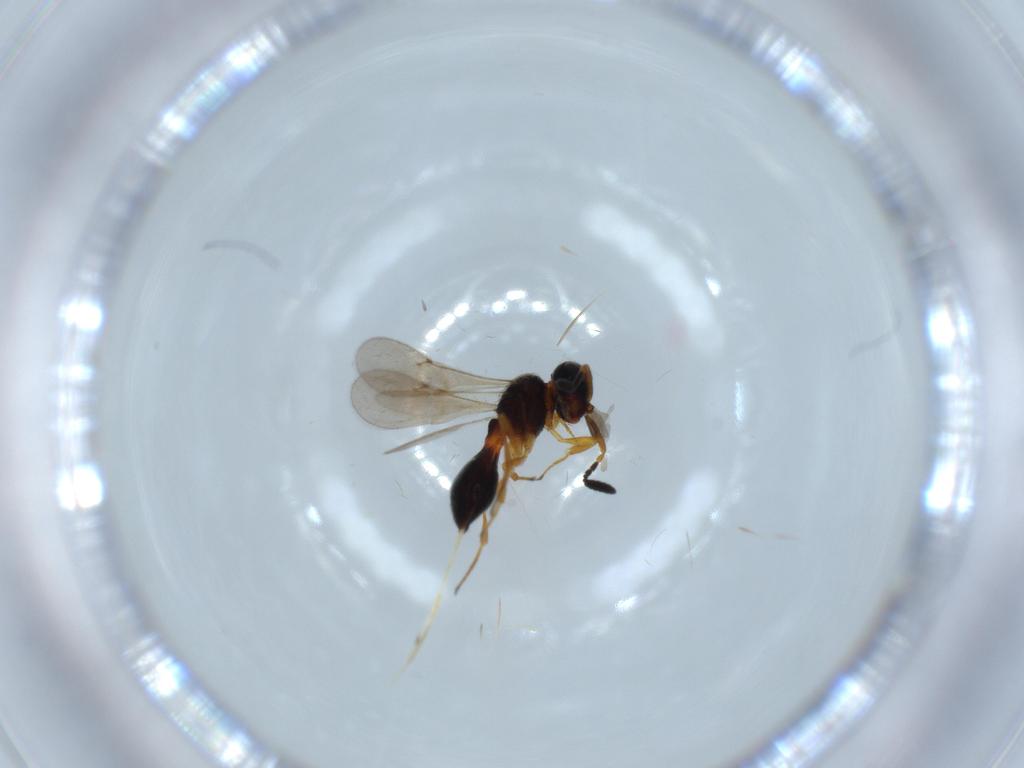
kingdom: Animalia
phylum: Arthropoda
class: Insecta
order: Hymenoptera
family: Scelionidae
